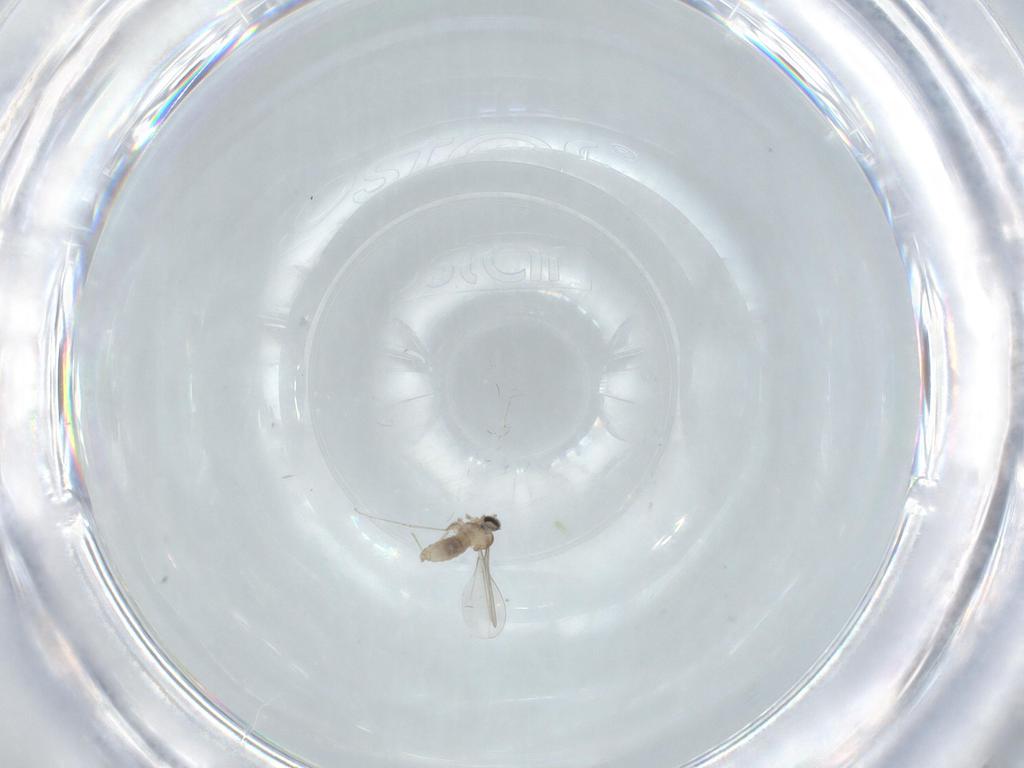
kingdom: Animalia
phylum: Arthropoda
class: Insecta
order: Diptera
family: Cecidomyiidae
